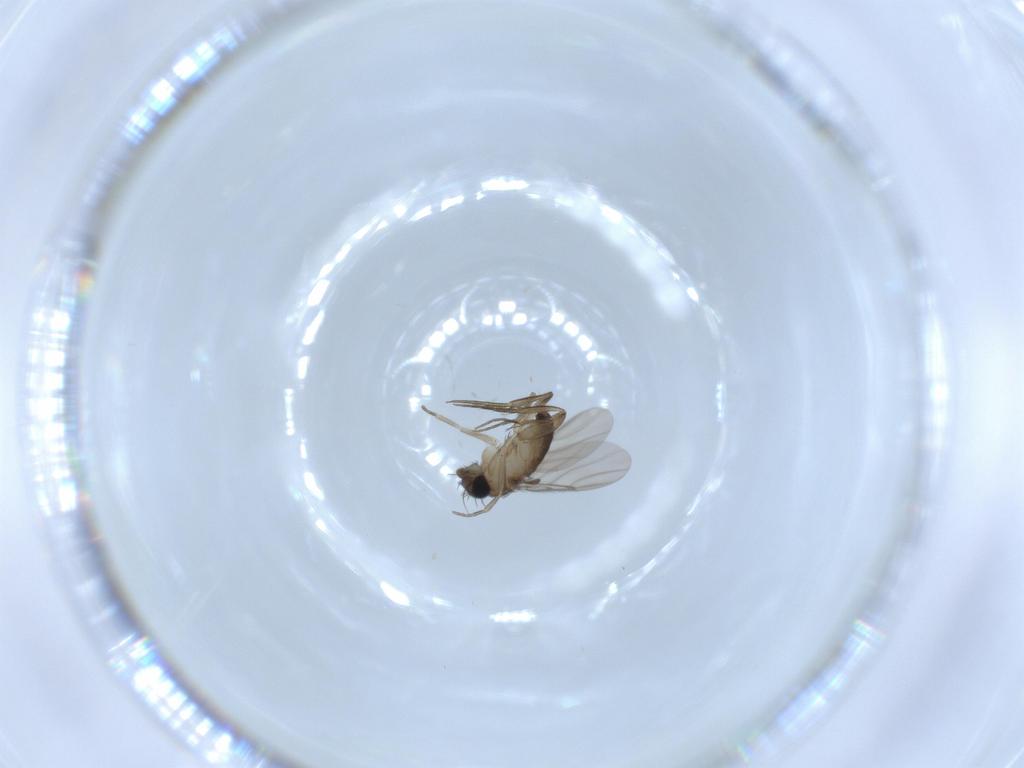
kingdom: Animalia
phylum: Arthropoda
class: Insecta
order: Diptera
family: Phoridae
